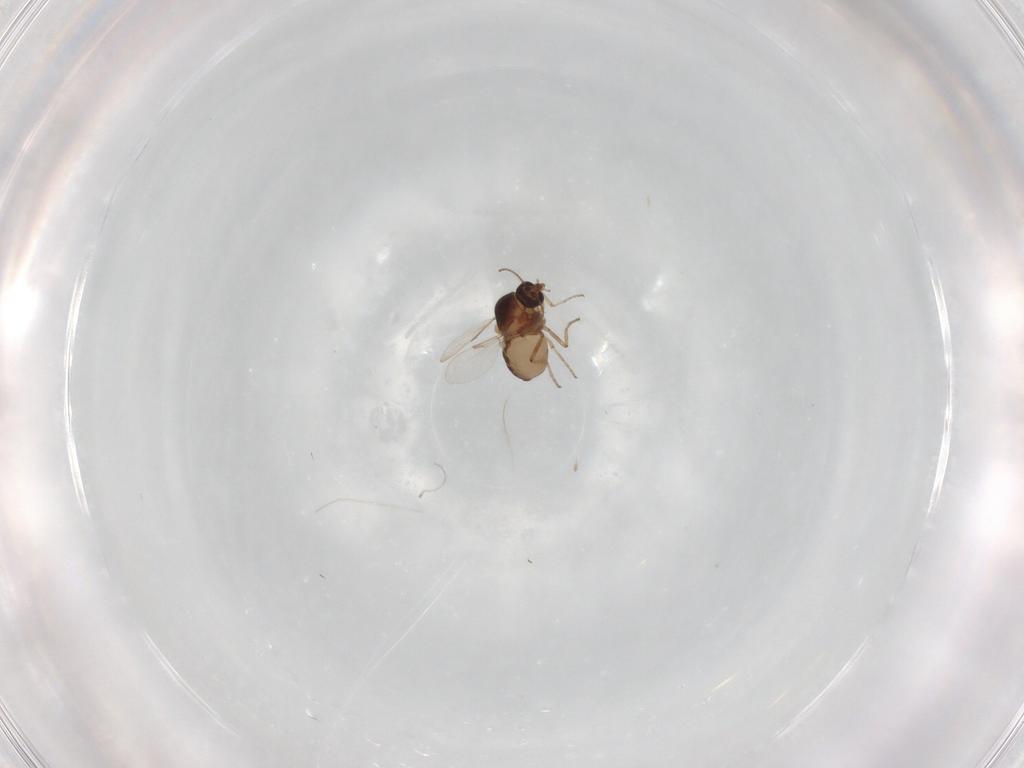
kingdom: Animalia
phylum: Arthropoda
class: Insecta
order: Diptera
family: Ceratopogonidae
